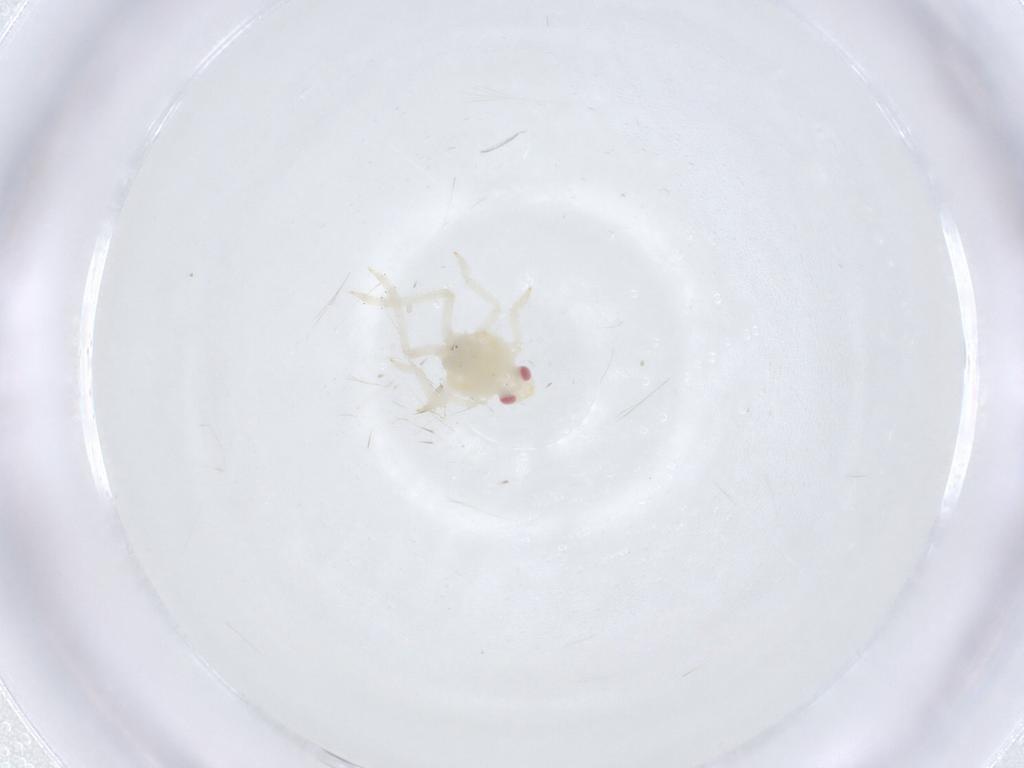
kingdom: Animalia
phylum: Arthropoda
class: Insecta
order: Hemiptera
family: Cercopidae
